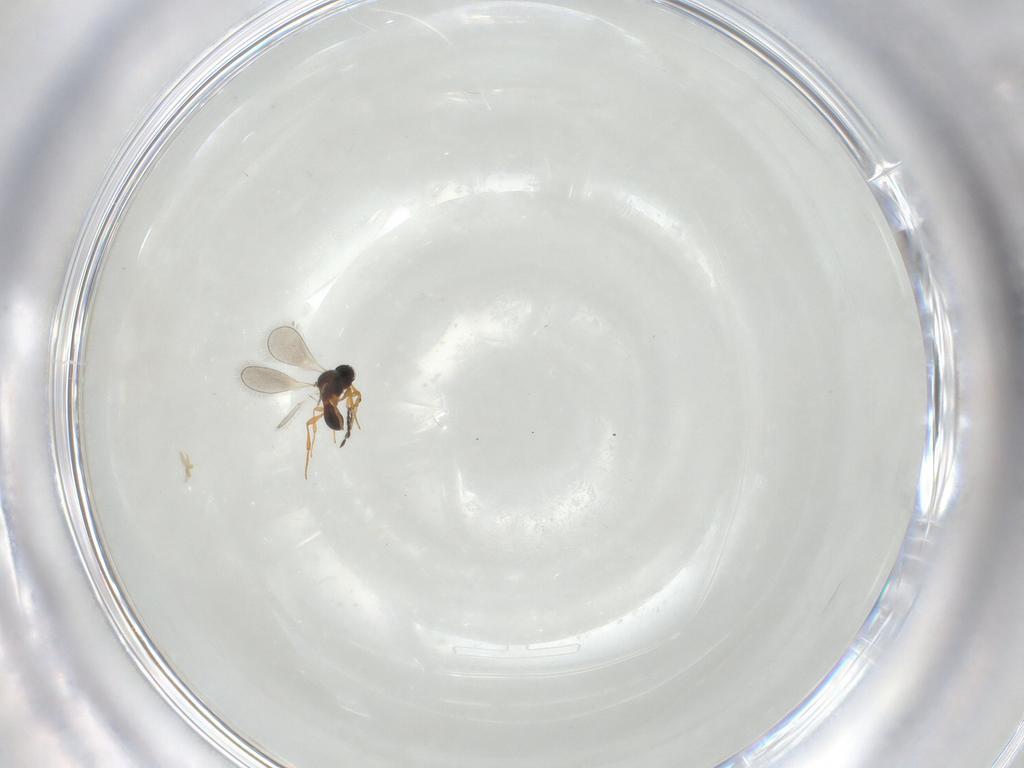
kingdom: Animalia
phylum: Arthropoda
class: Insecta
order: Hymenoptera
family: Platygastridae
